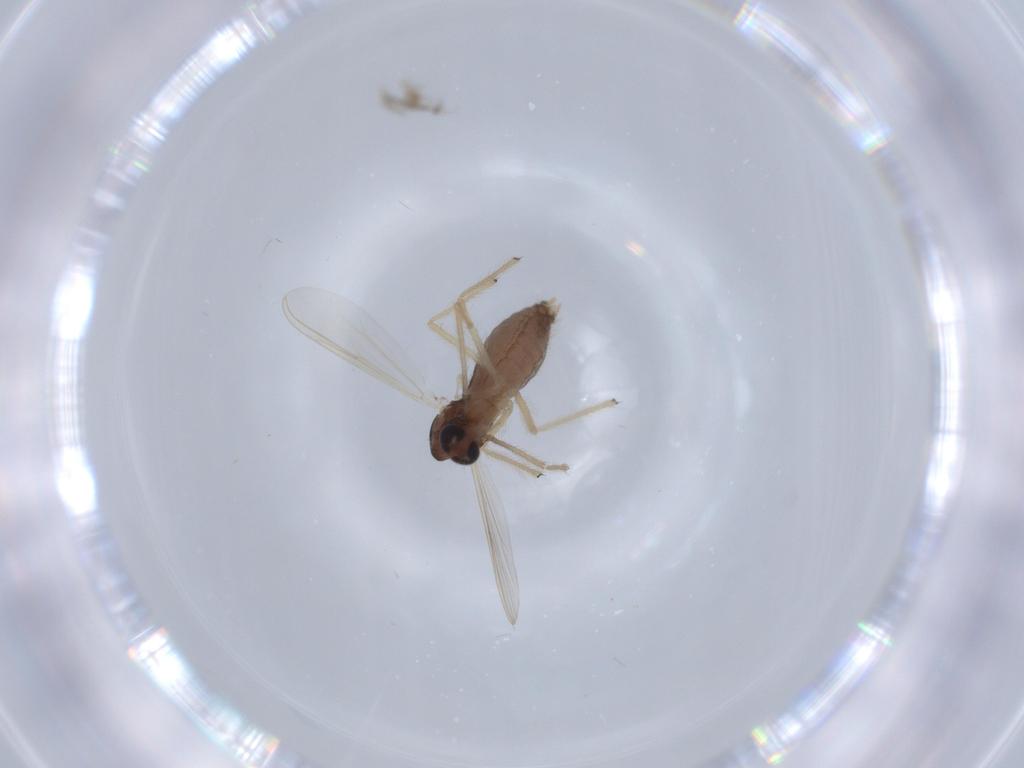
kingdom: Animalia
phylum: Arthropoda
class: Insecta
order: Diptera
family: Chironomidae
